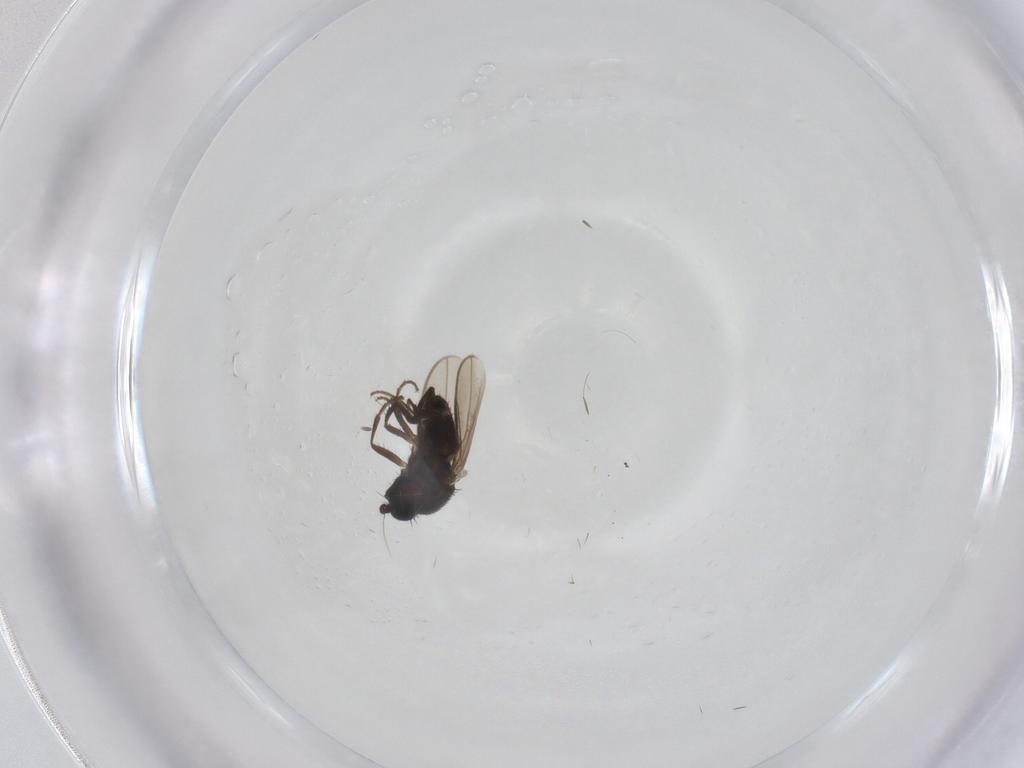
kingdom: Animalia
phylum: Arthropoda
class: Insecta
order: Diptera
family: Sphaeroceridae
